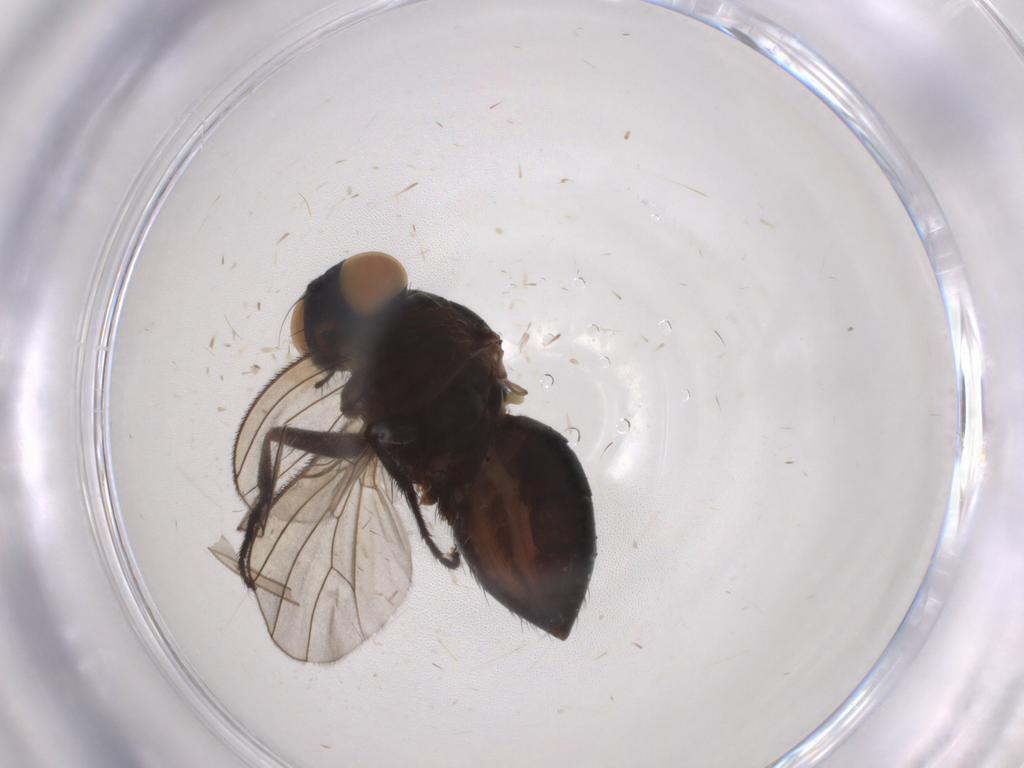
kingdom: Animalia
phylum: Arthropoda
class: Insecta
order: Diptera
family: Muscidae
